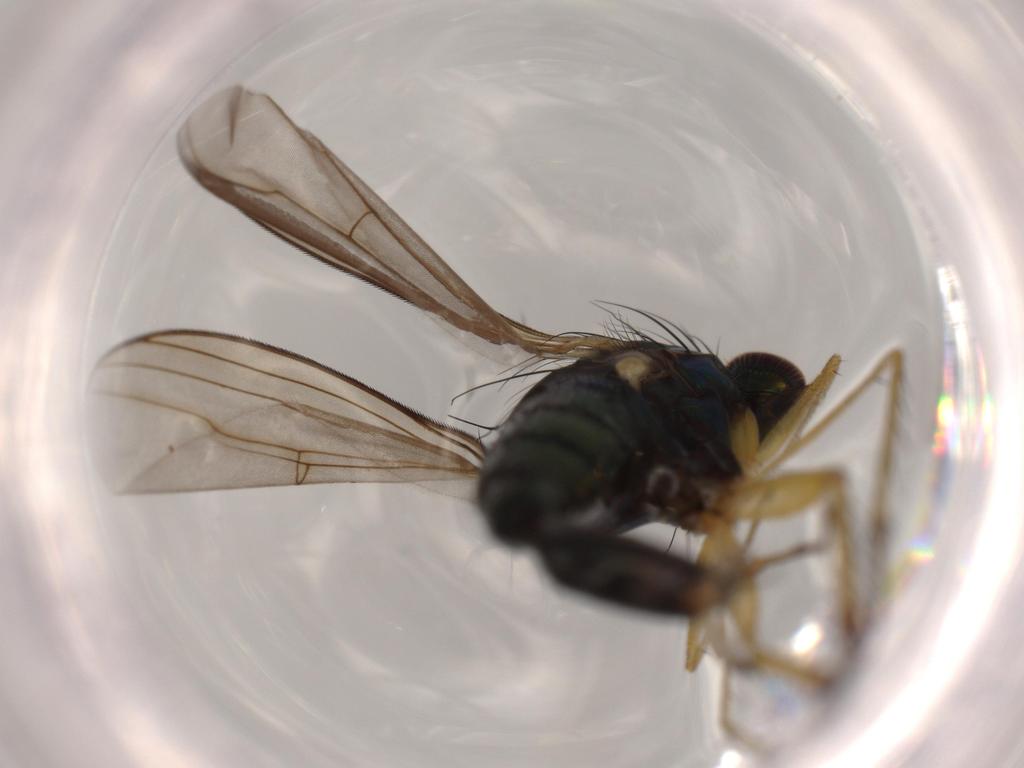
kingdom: Animalia
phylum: Arthropoda
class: Insecta
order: Diptera
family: Dolichopodidae
